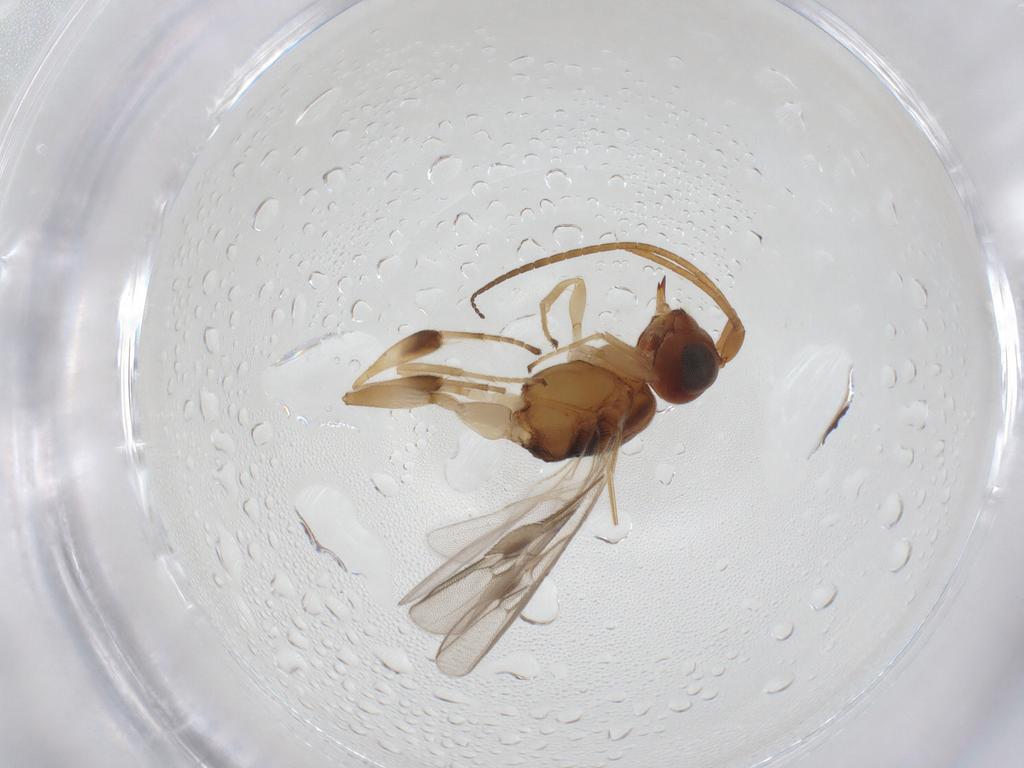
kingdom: Animalia
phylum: Arthropoda
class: Insecta
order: Hymenoptera
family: Braconidae
